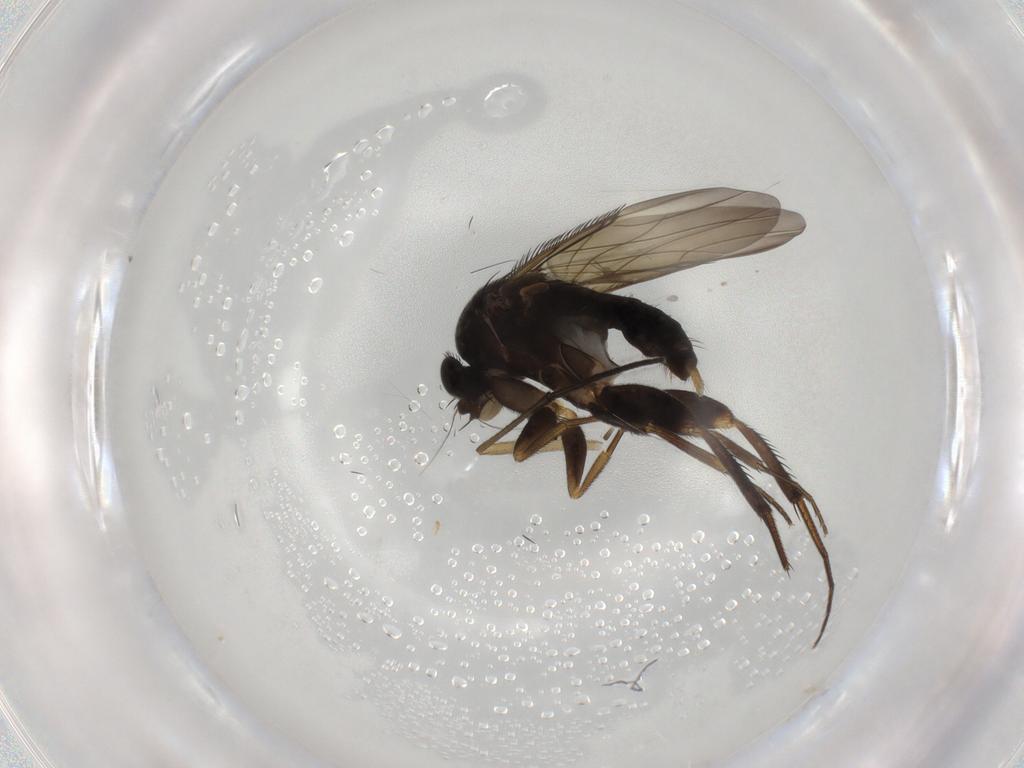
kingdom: Animalia
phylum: Arthropoda
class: Insecta
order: Diptera
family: Phoridae
